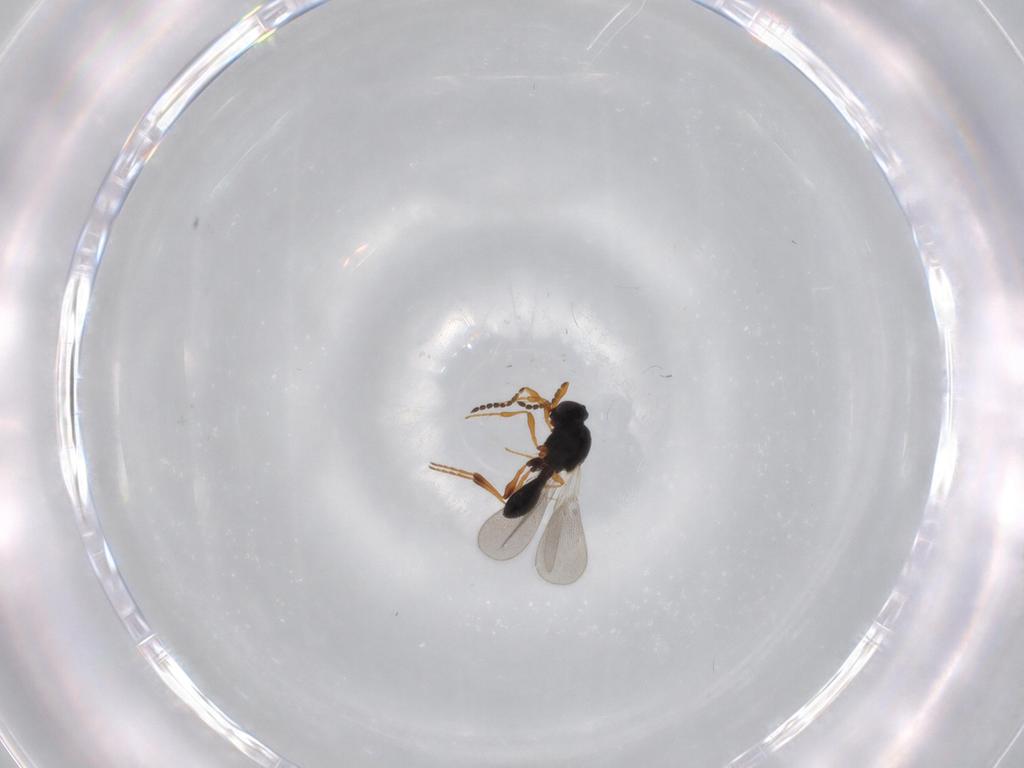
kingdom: Animalia
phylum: Arthropoda
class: Insecta
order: Hymenoptera
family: Platygastridae
